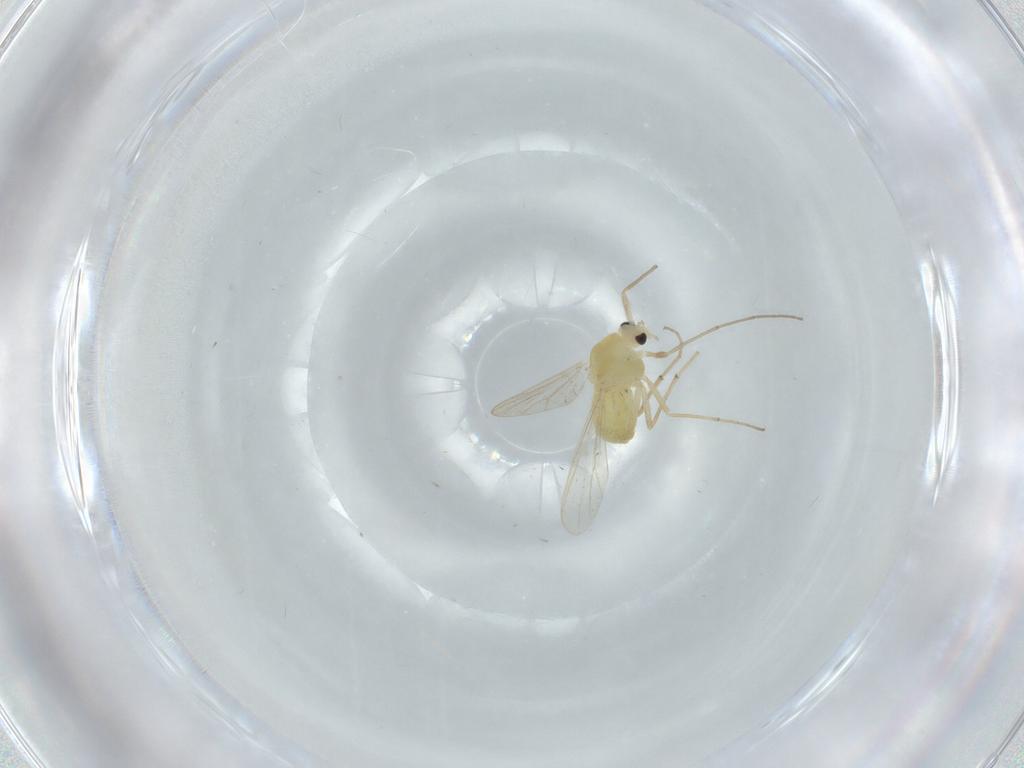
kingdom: Animalia
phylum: Arthropoda
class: Insecta
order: Diptera
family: Chironomidae
